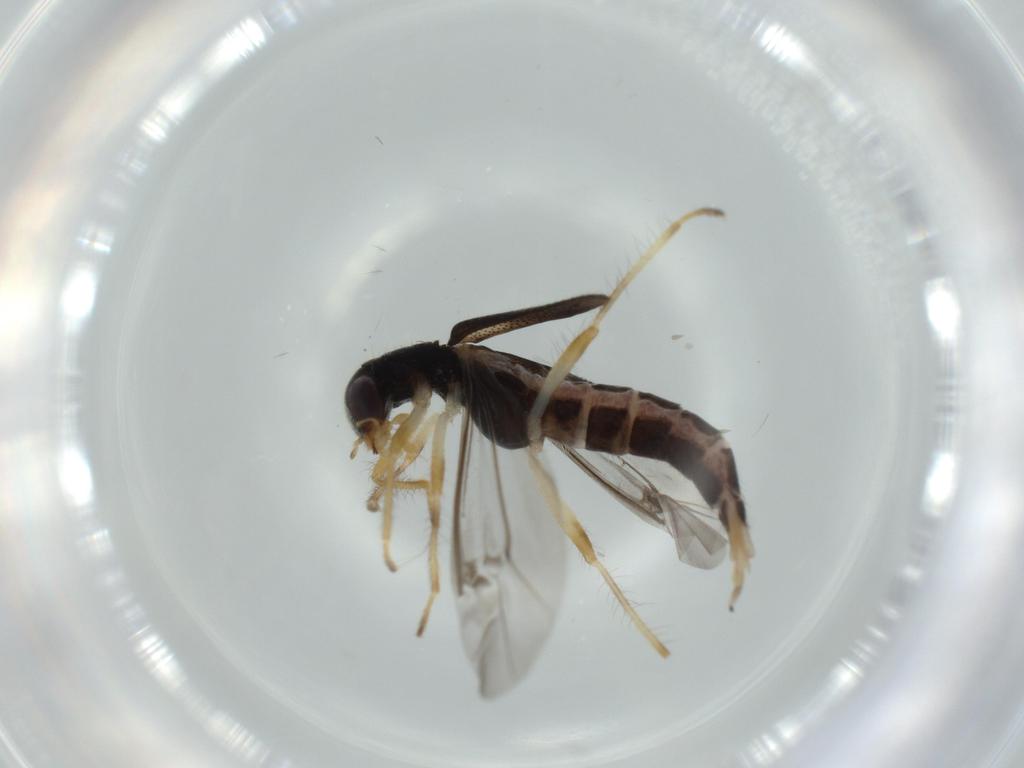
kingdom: Animalia
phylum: Arthropoda
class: Insecta
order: Coleoptera
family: Cleridae
